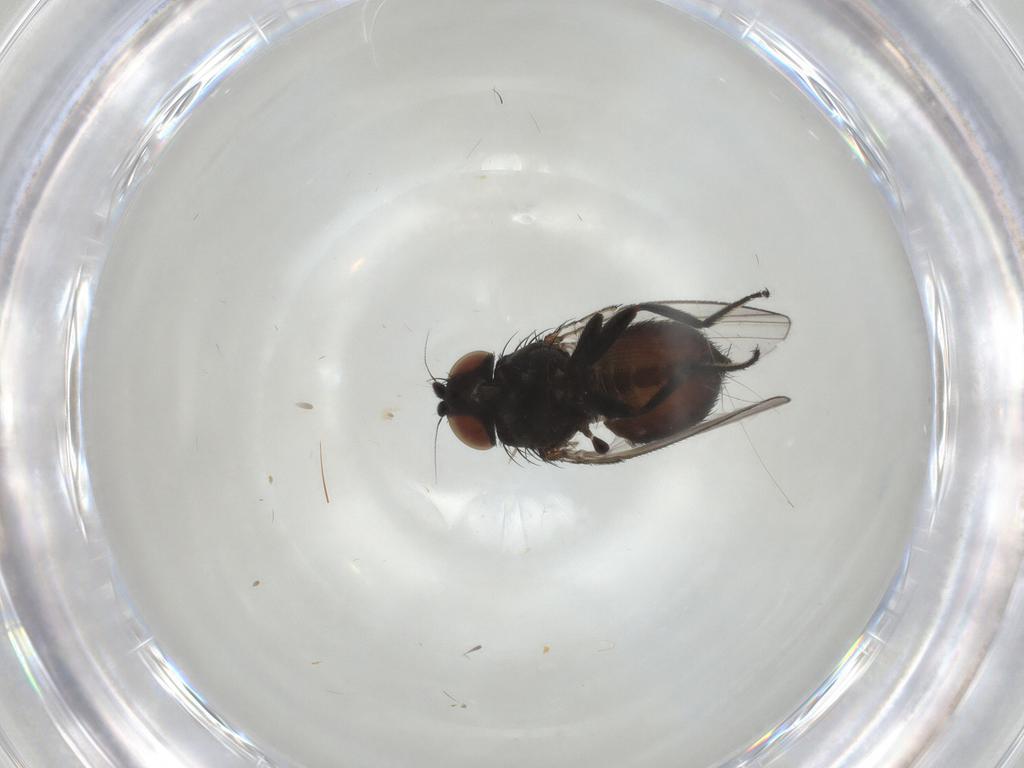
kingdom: Animalia
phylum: Arthropoda
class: Insecta
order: Diptera
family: Milichiidae
